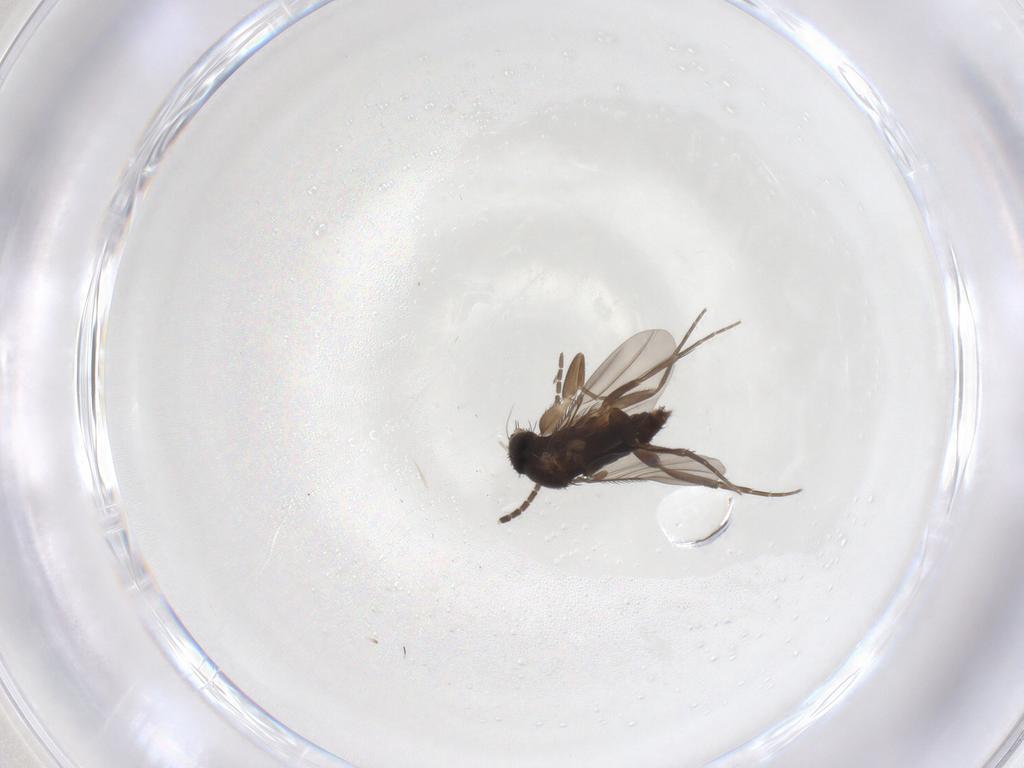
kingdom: Animalia
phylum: Arthropoda
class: Insecta
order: Diptera
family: Phoridae
